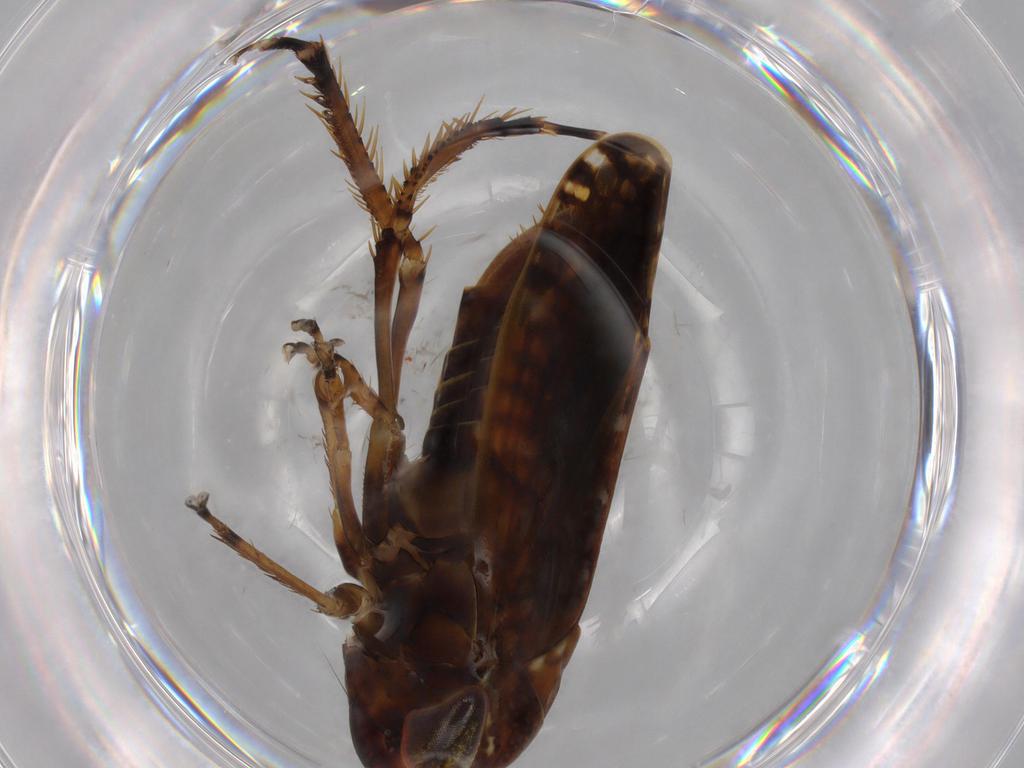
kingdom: Animalia
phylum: Arthropoda
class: Insecta
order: Hemiptera
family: Cicadellidae
